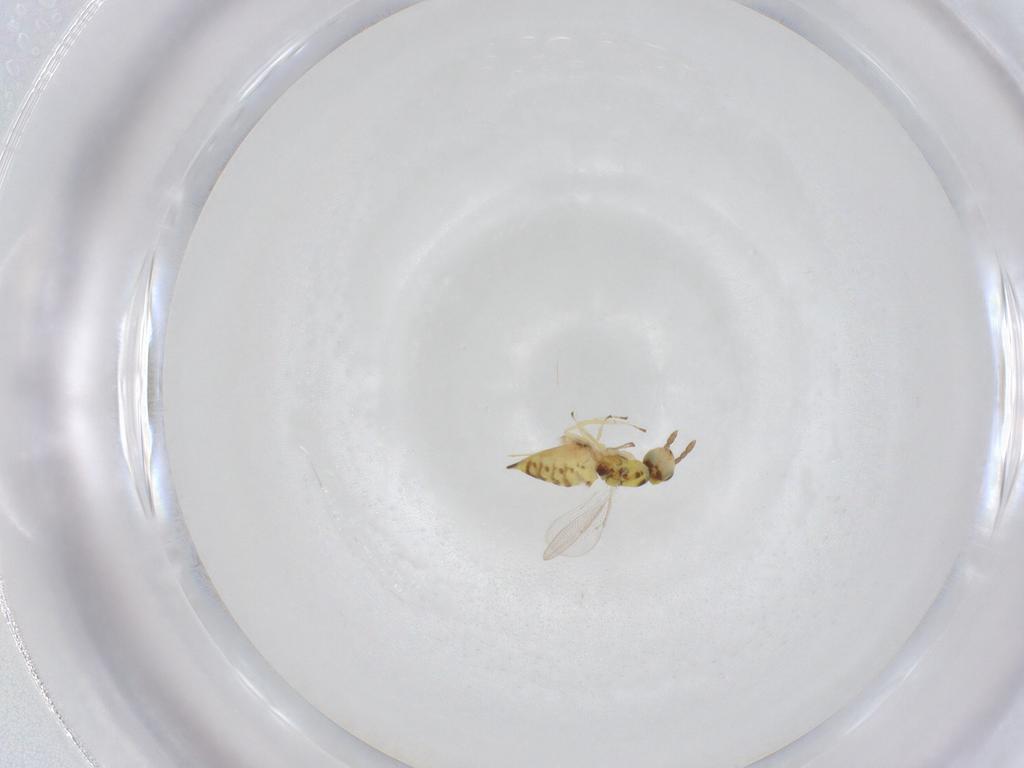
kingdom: Animalia
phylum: Arthropoda
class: Insecta
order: Hymenoptera
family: Eulophidae
